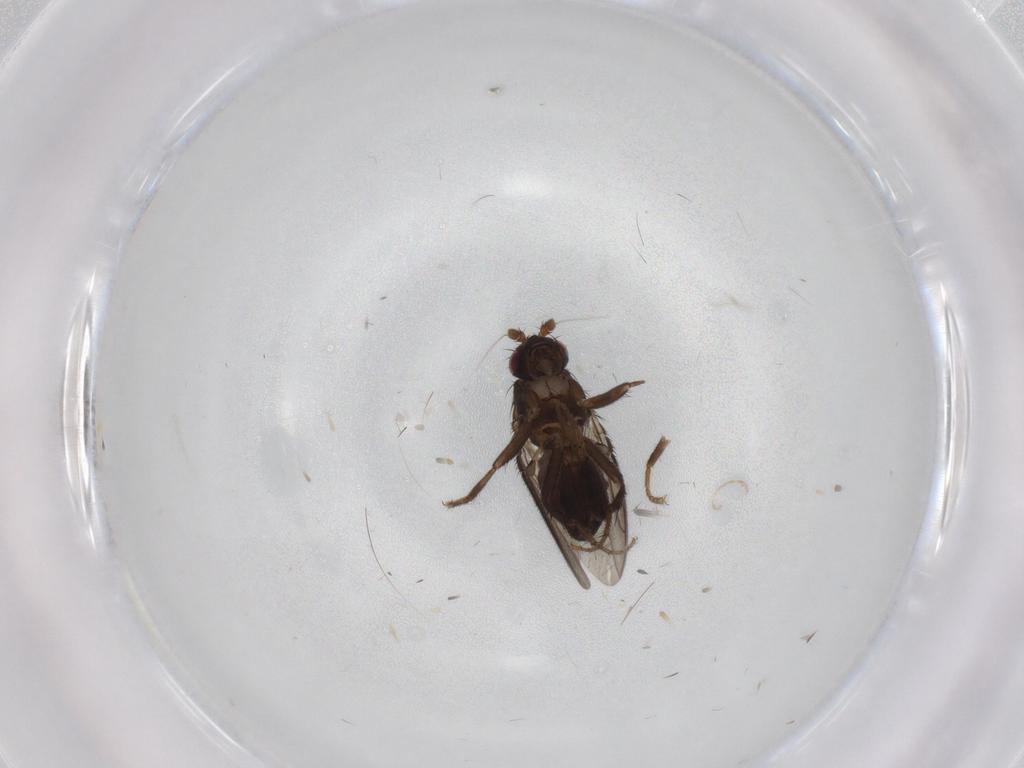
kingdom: Animalia
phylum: Arthropoda
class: Insecta
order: Diptera
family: Sphaeroceridae
